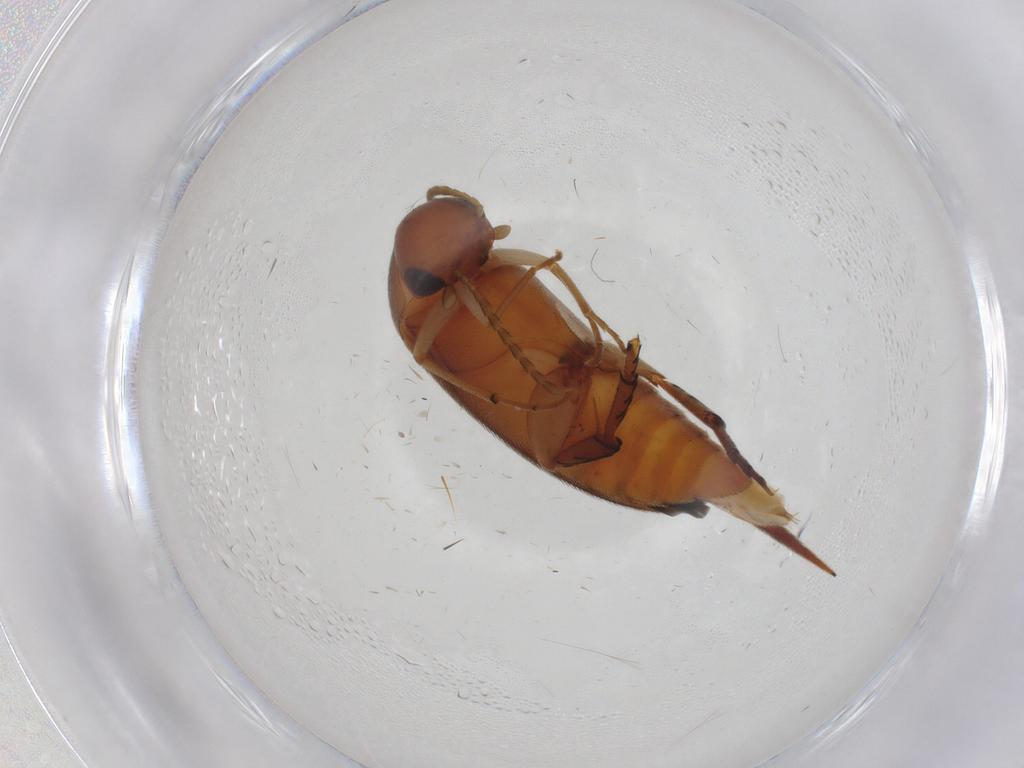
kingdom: Animalia
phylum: Arthropoda
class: Insecta
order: Coleoptera
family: Mordellidae
